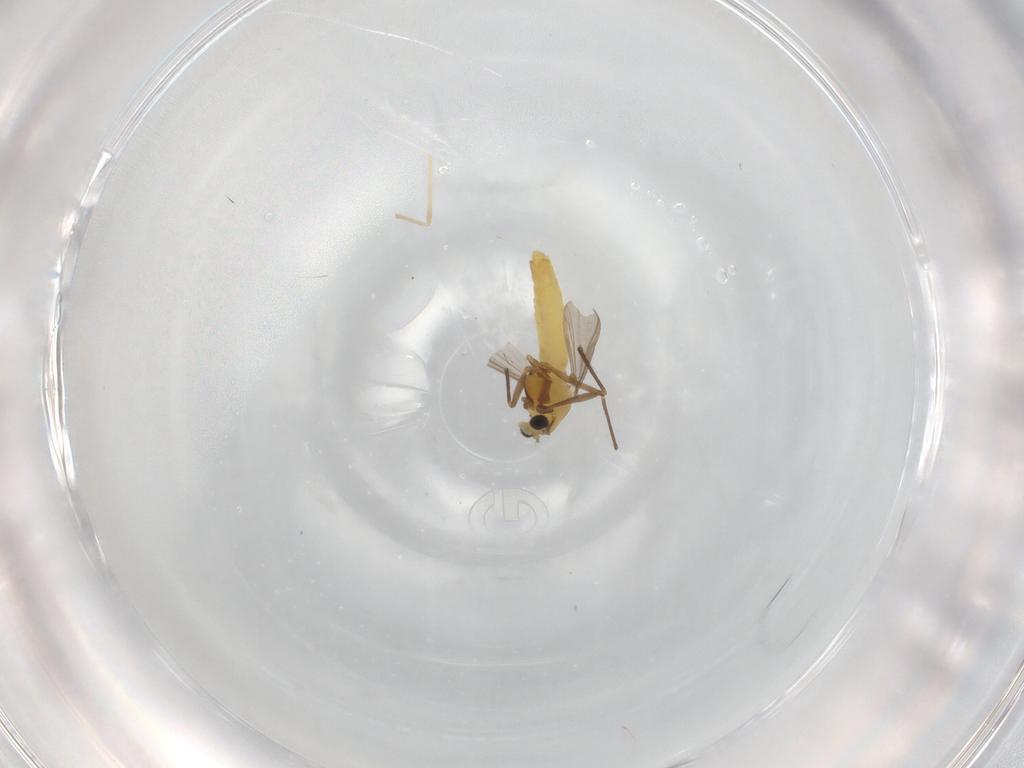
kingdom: Animalia
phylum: Arthropoda
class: Insecta
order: Diptera
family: Chironomidae
